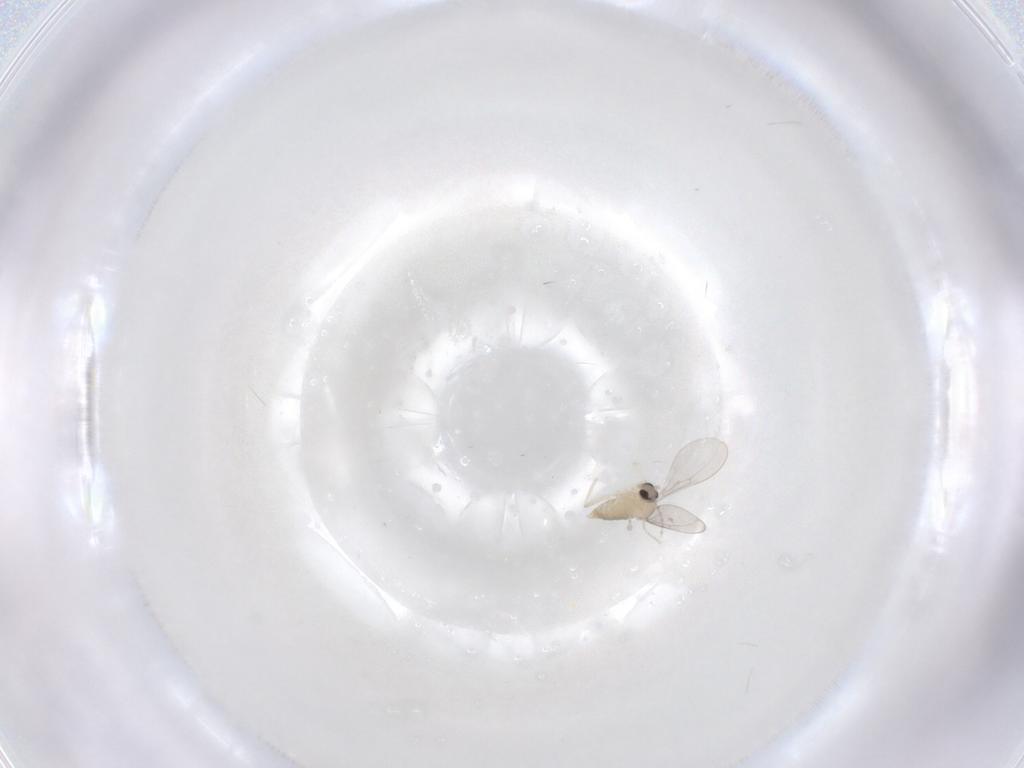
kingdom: Animalia
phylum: Arthropoda
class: Insecta
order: Diptera
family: Cecidomyiidae
